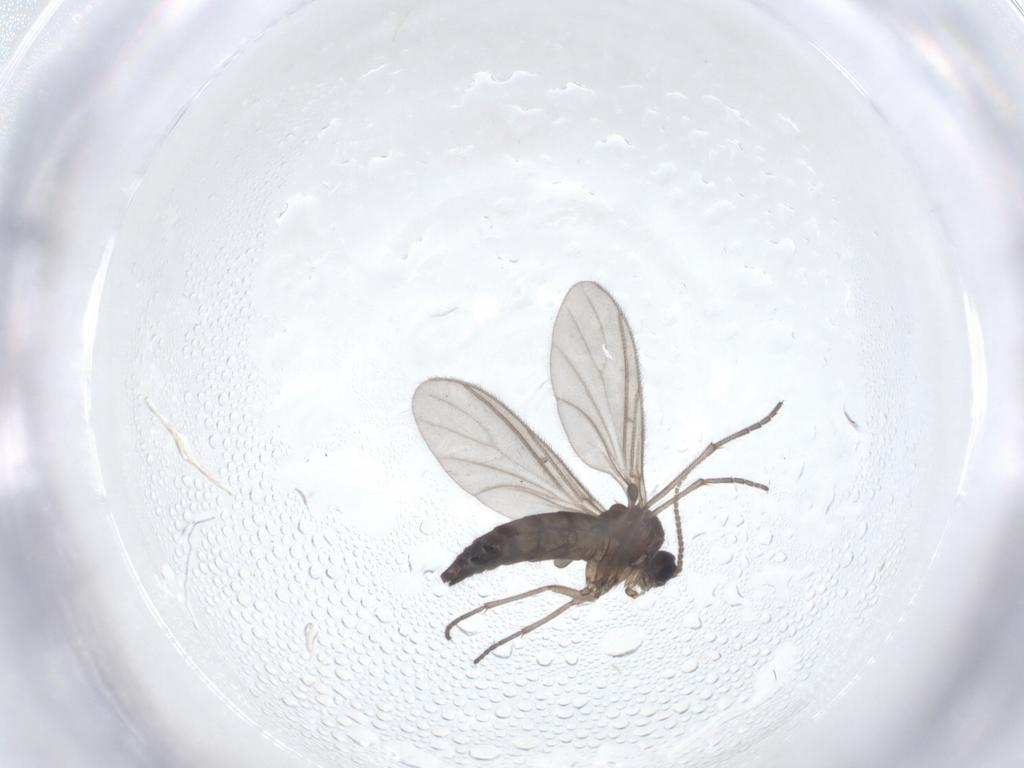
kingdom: Animalia
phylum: Arthropoda
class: Insecta
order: Diptera
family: Sciaridae
